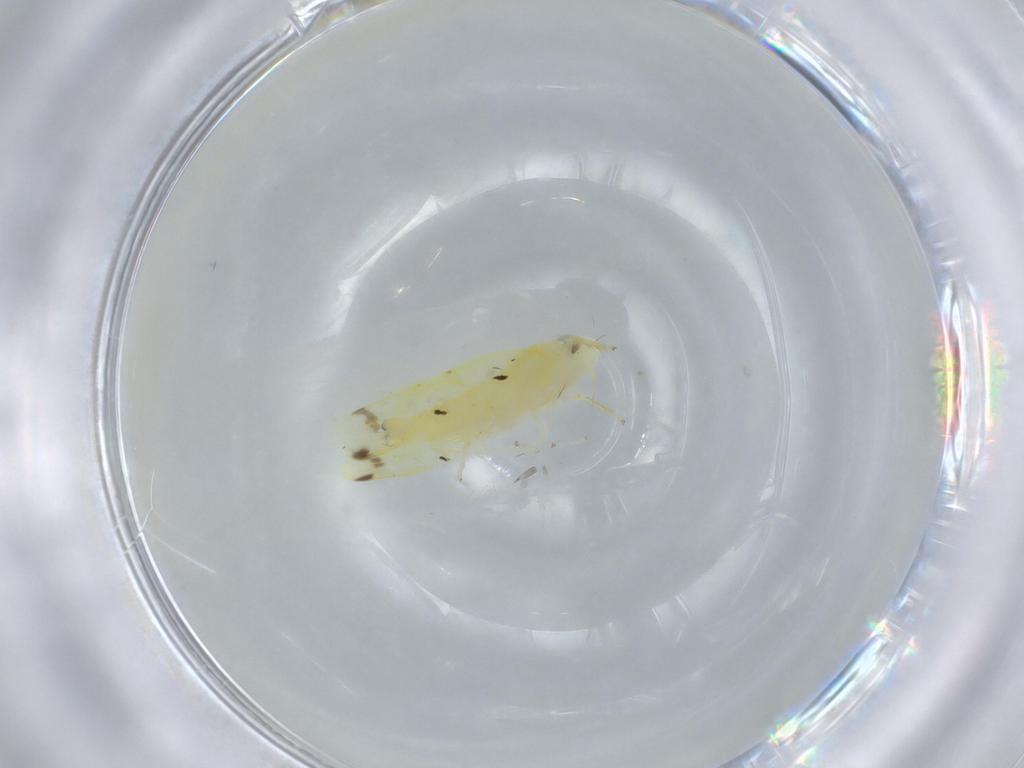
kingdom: Animalia
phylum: Arthropoda
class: Insecta
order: Hemiptera
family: Cicadellidae
